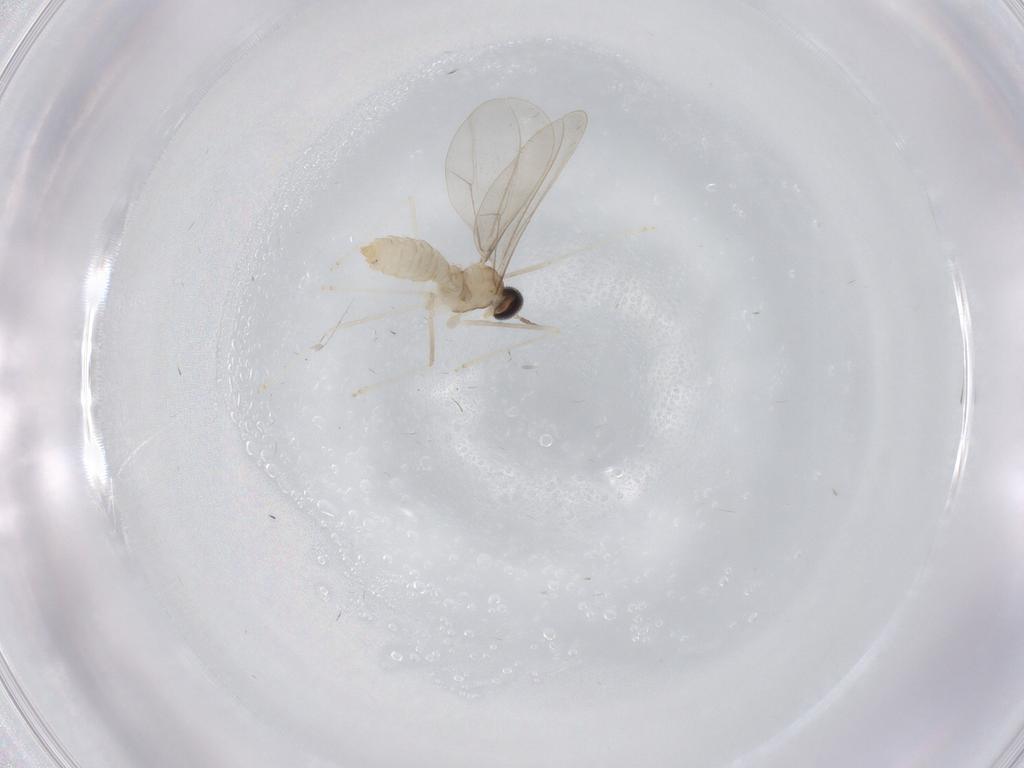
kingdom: Animalia
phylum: Arthropoda
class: Insecta
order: Diptera
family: Cecidomyiidae
